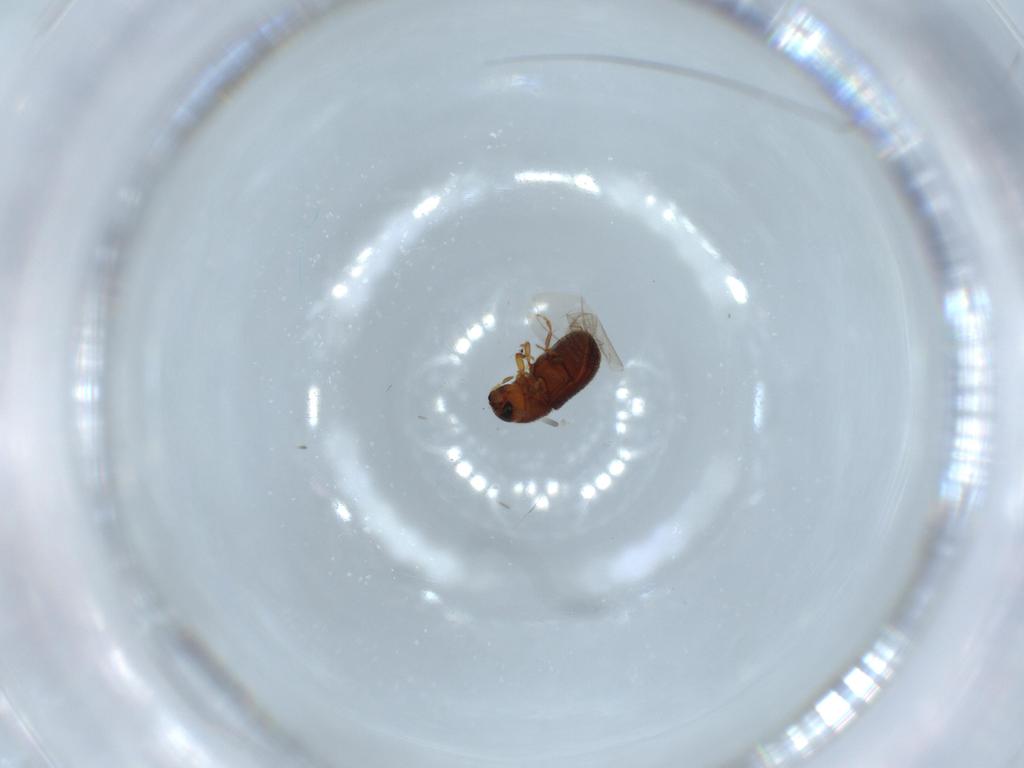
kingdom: Animalia
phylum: Arthropoda
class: Insecta
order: Coleoptera
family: Curculionidae
